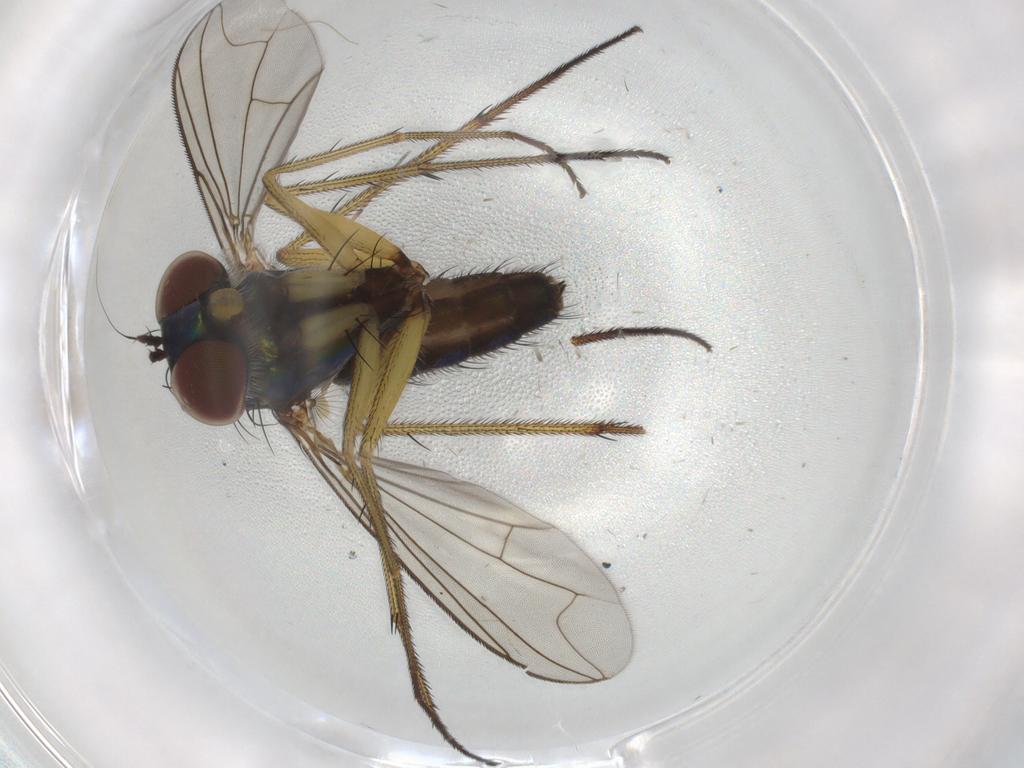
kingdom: Animalia
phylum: Arthropoda
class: Insecta
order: Diptera
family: Dolichopodidae
